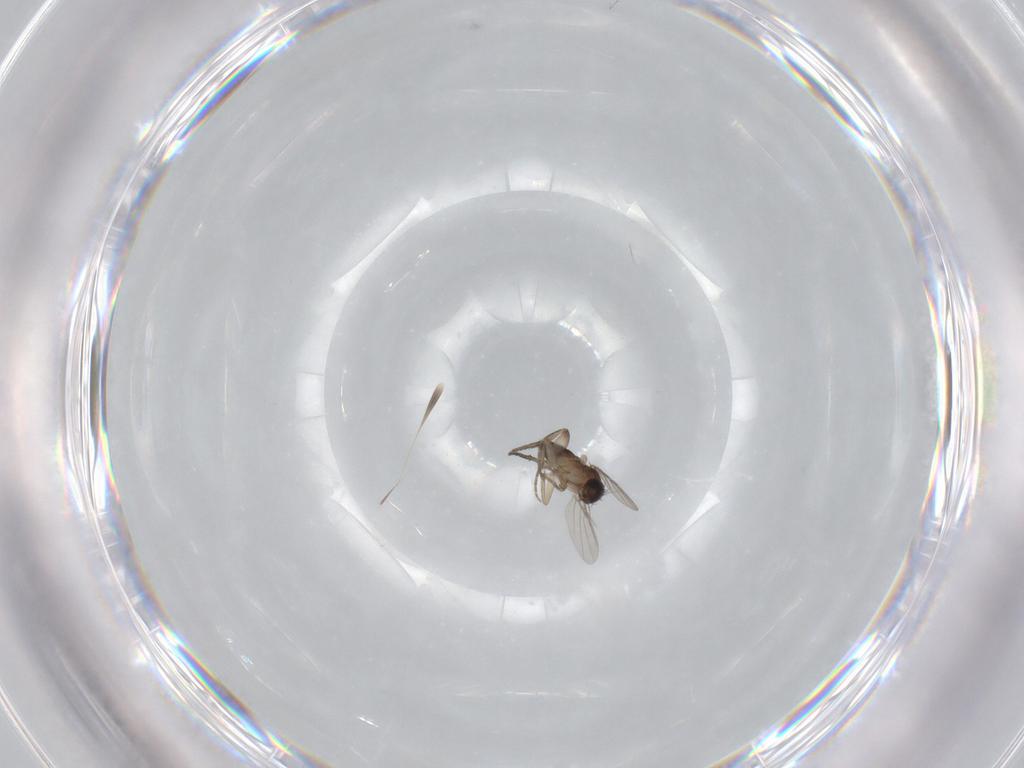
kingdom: Animalia
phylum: Arthropoda
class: Insecta
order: Diptera
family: Phoridae
